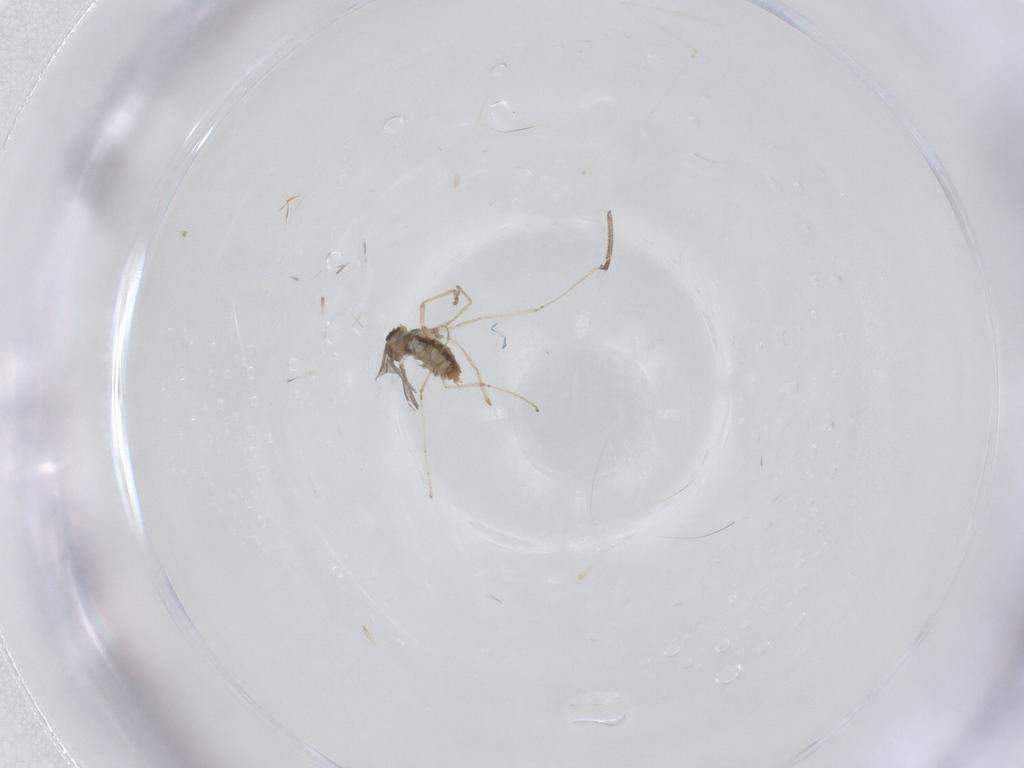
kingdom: Animalia
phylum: Arthropoda
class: Insecta
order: Diptera
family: Cecidomyiidae
